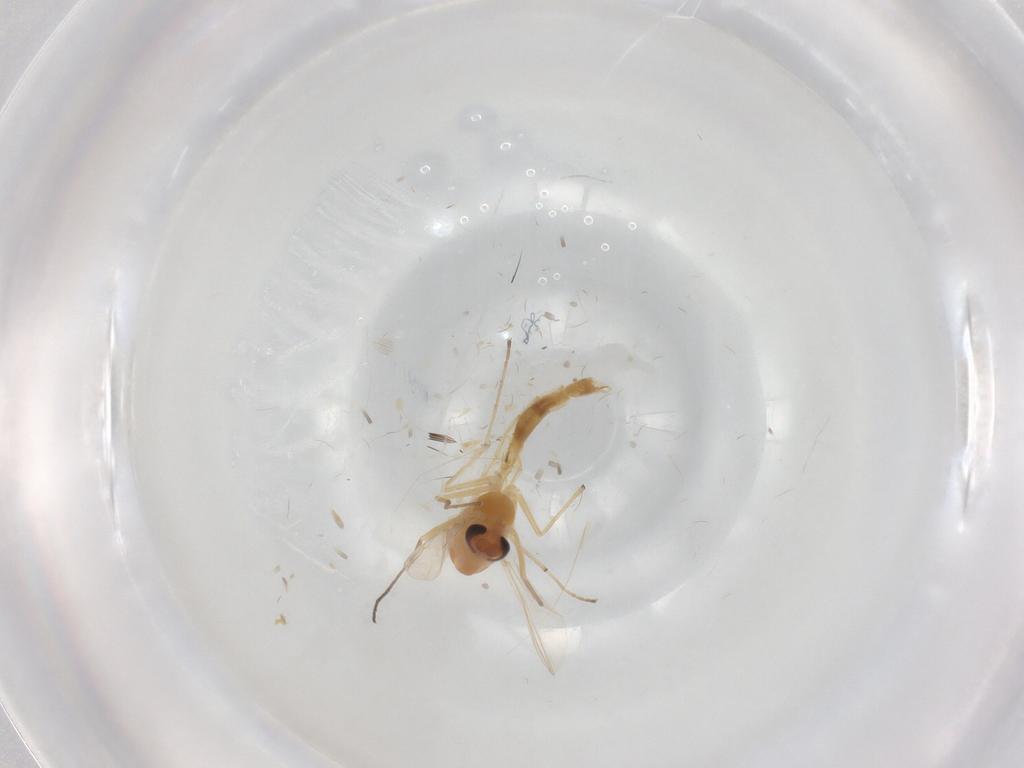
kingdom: Animalia
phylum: Arthropoda
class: Insecta
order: Diptera
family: Chironomidae
